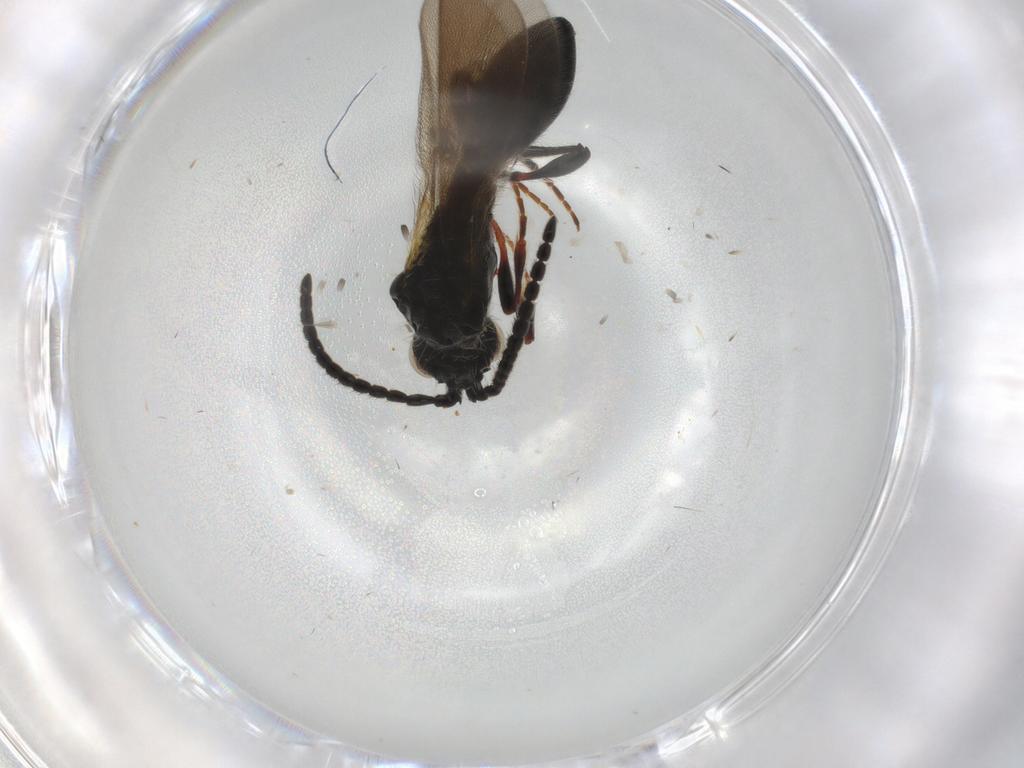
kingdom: Animalia
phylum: Arthropoda
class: Insecta
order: Hymenoptera
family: Diapriidae
